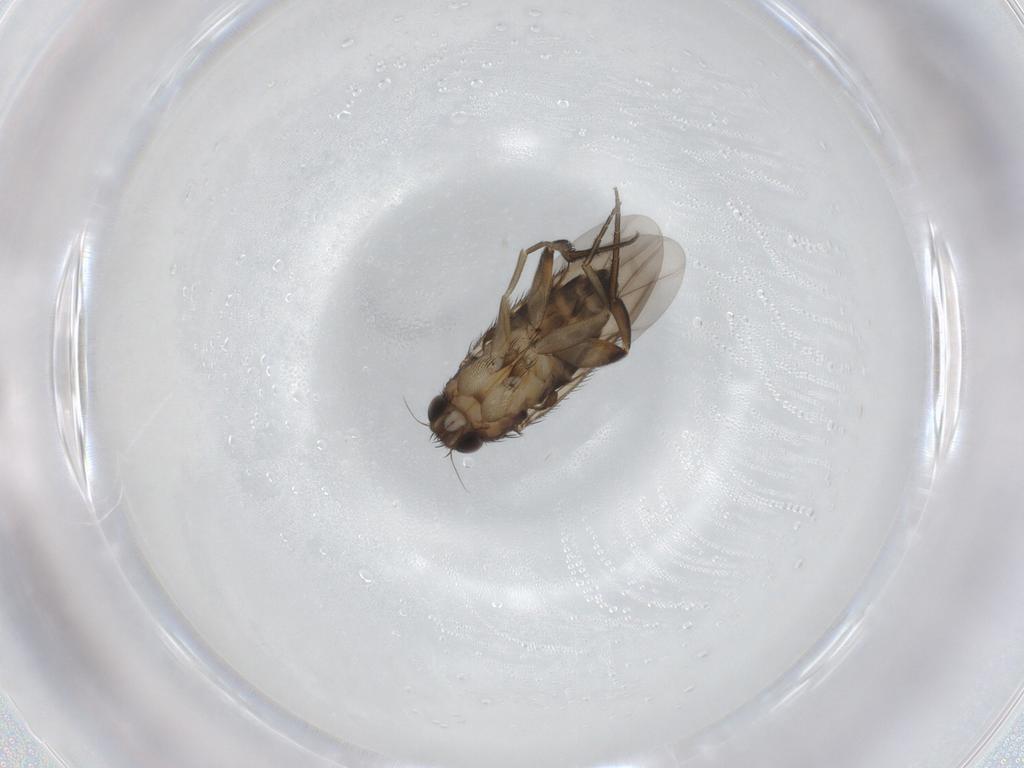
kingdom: Animalia
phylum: Arthropoda
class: Insecta
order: Diptera
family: Phoridae
